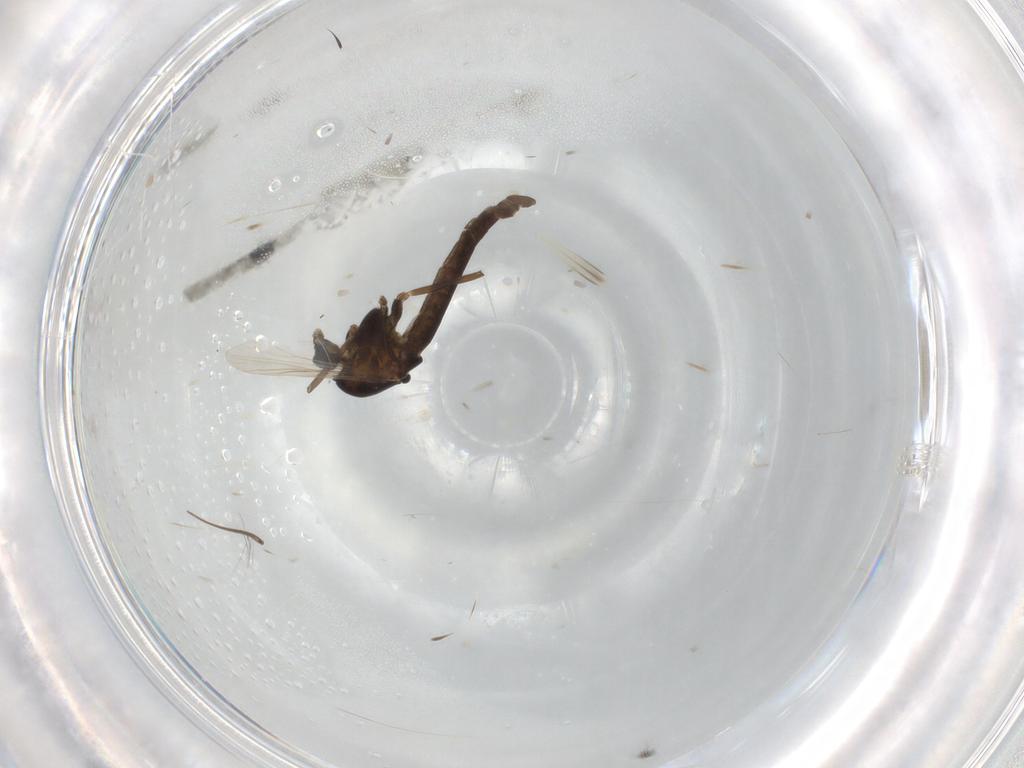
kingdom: Animalia
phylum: Arthropoda
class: Insecta
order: Diptera
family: Chironomidae
